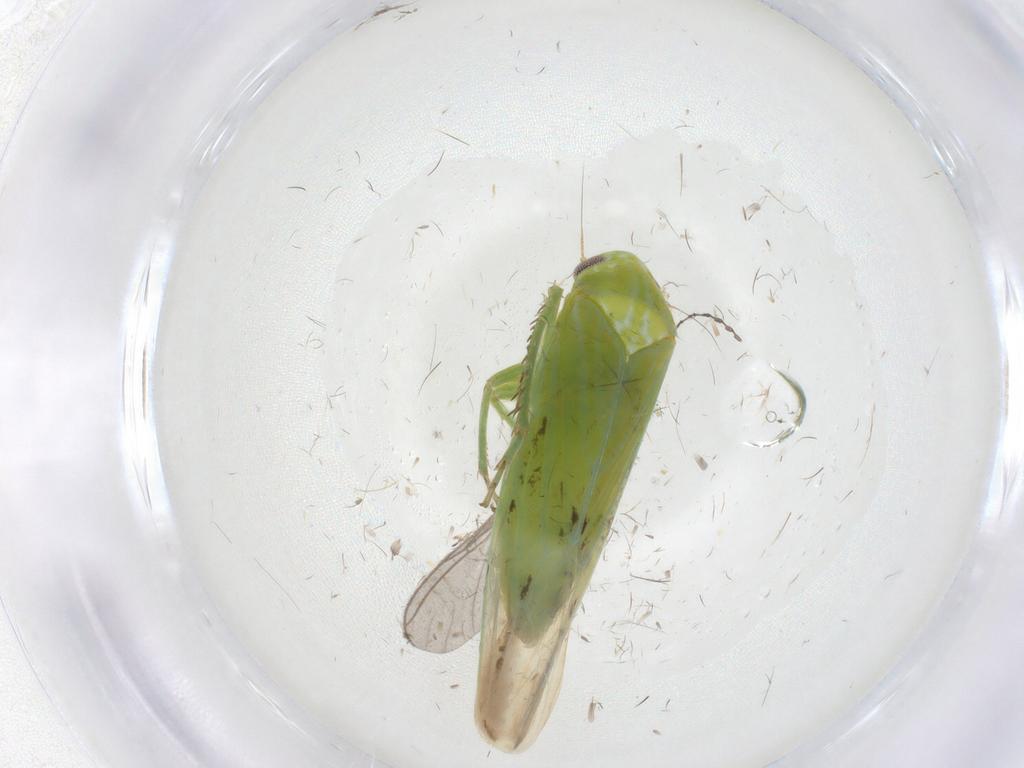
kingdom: Animalia
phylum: Arthropoda
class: Insecta
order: Hemiptera
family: Cicadellidae
